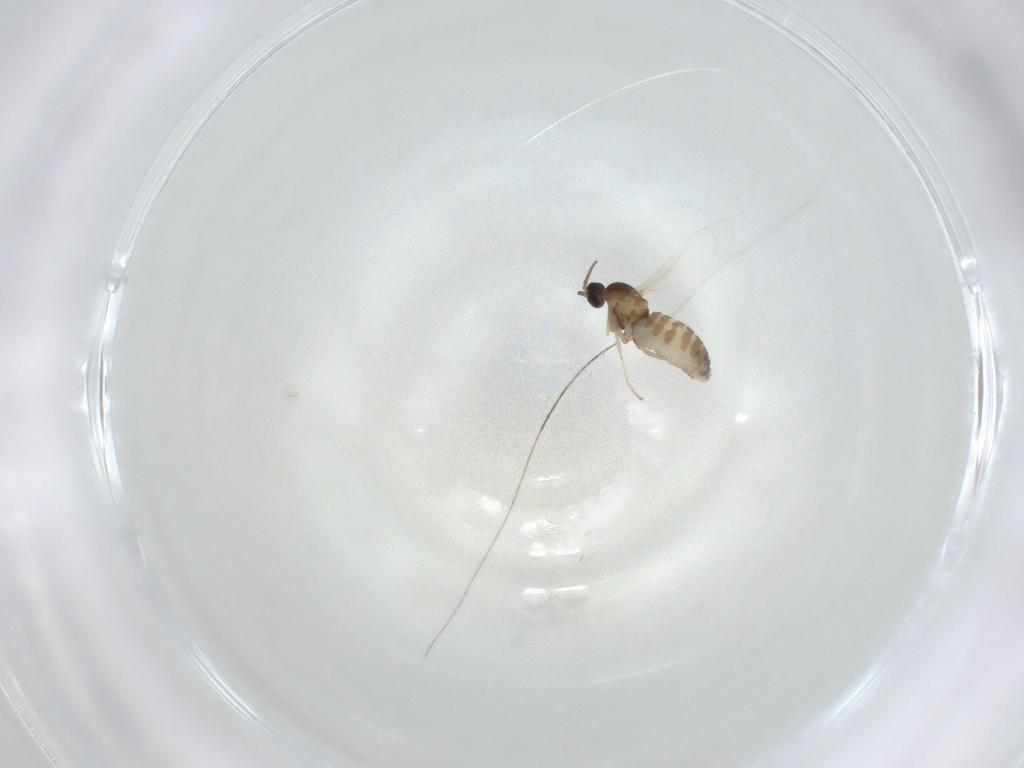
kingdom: Animalia
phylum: Arthropoda
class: Insecta
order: Diptera
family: Cecidomyiidae
